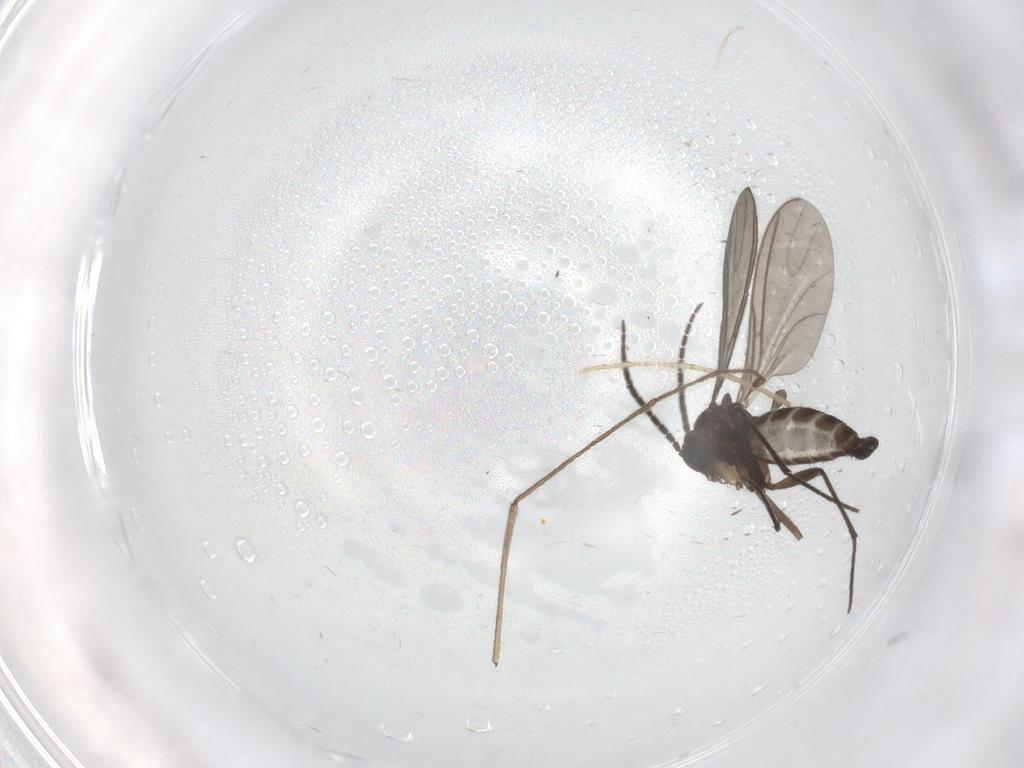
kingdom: Animalia
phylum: Arthropoda
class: Insecta
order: Diptera
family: Sciaridae
